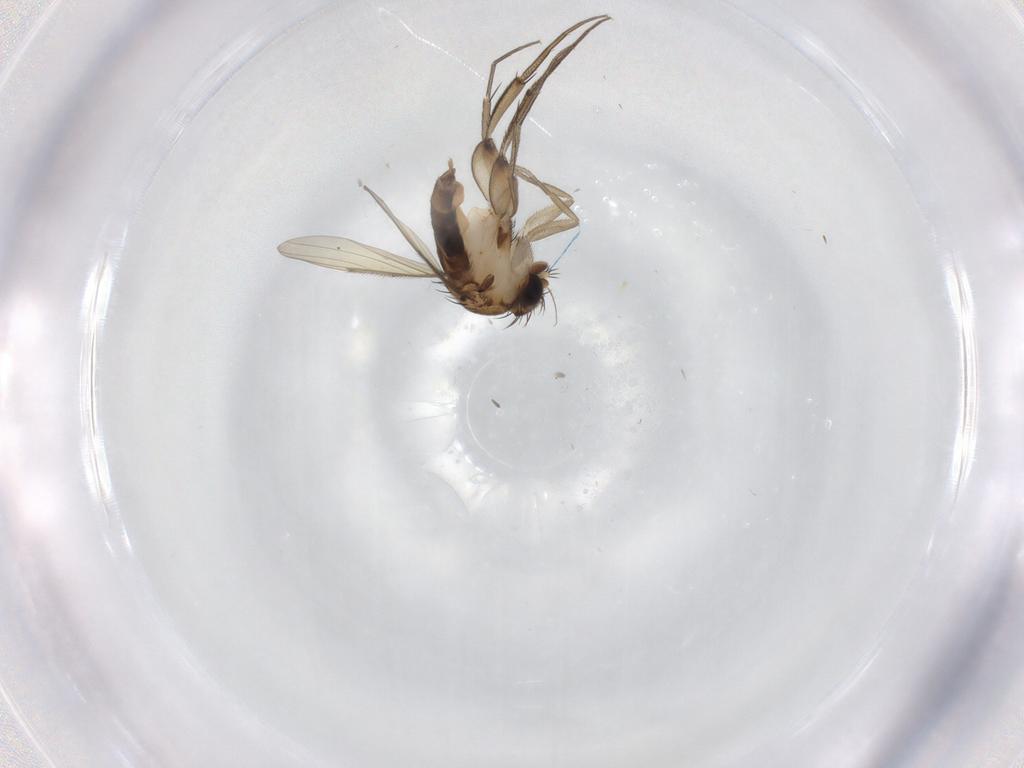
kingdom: Animalia
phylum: Arthropoda
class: Insecta
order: Diptera
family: Phoridae
